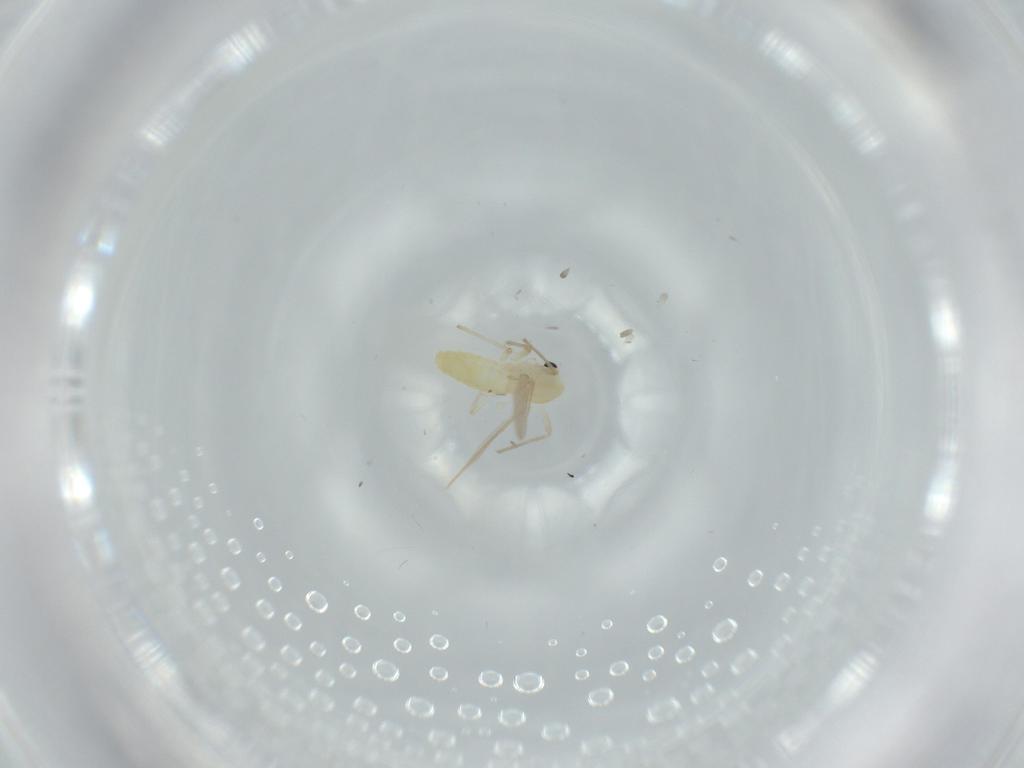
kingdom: Animalia
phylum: Arthropoda
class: Insecta
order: Diptera
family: Chironomidae
